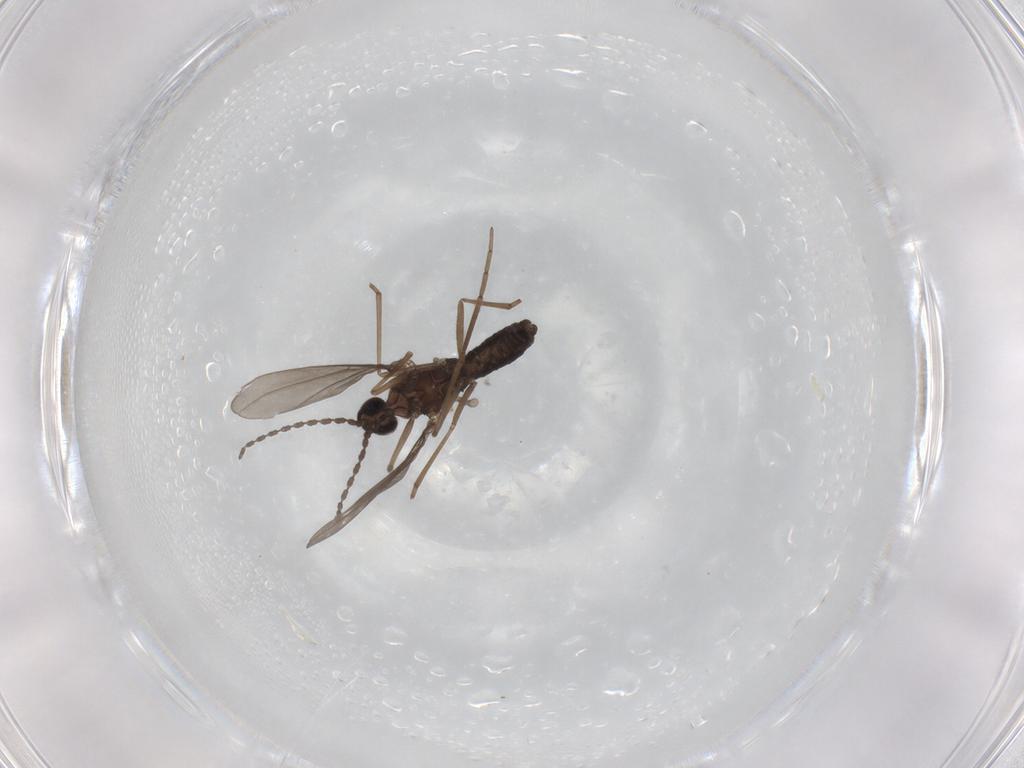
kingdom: Animalia
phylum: Arthropoda
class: Insecta
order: Diptera
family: Cecidomyiidae
